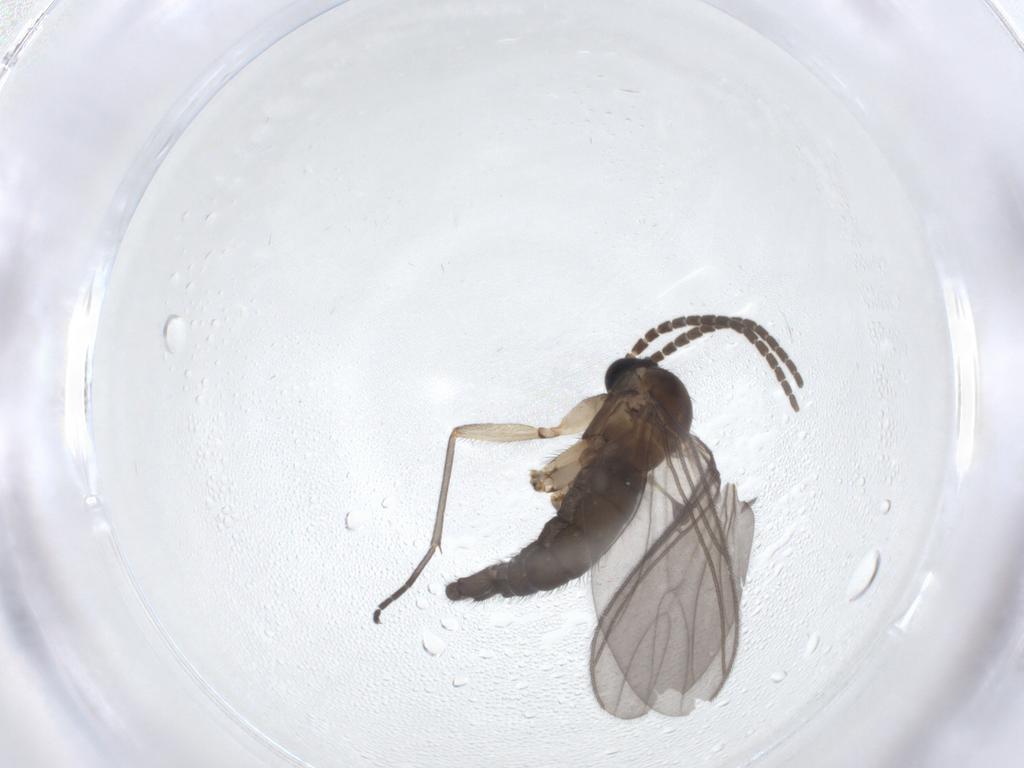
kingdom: Animalia
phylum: Arthropoda
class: Insecta
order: Diptera
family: Sciaridae
